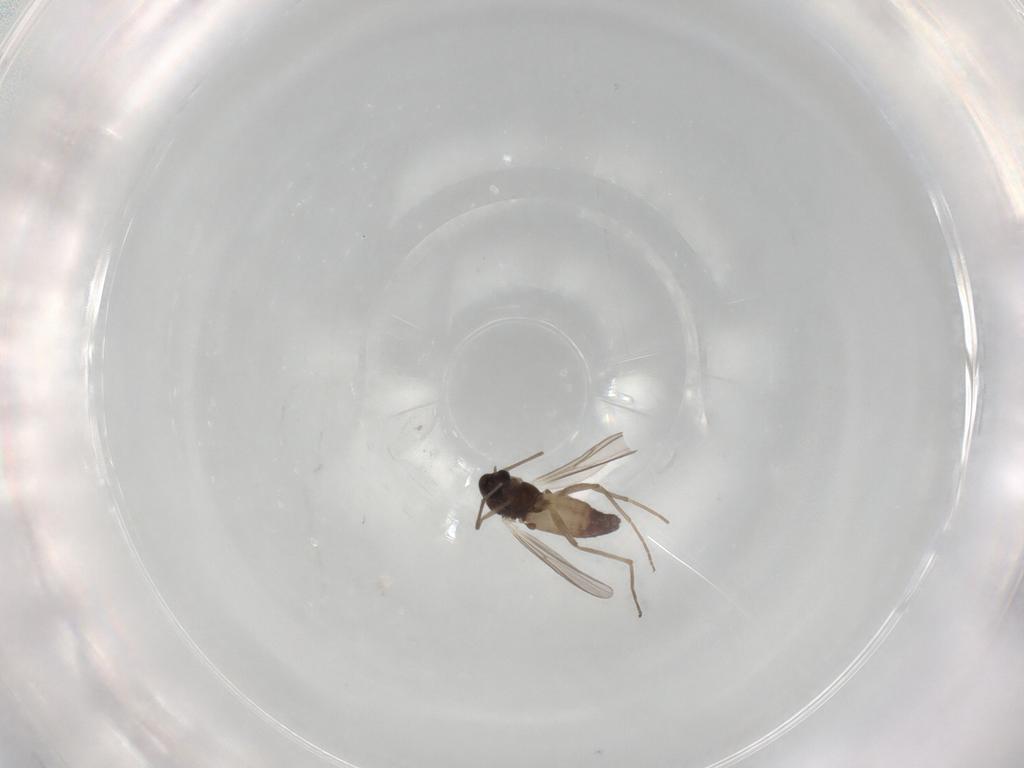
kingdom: Animalia
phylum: Arthropoda
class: Insecta
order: Diptera
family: Chironomidae
